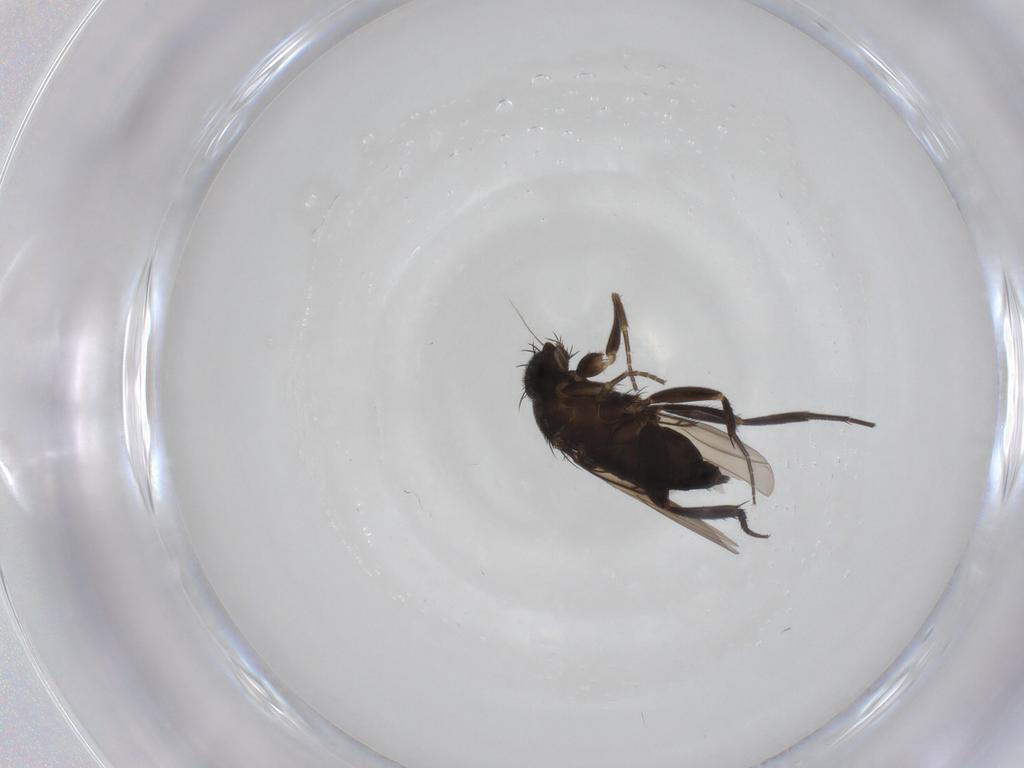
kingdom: Animalia
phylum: Arthropoda
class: Insecta
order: Diptera
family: Phoridae
